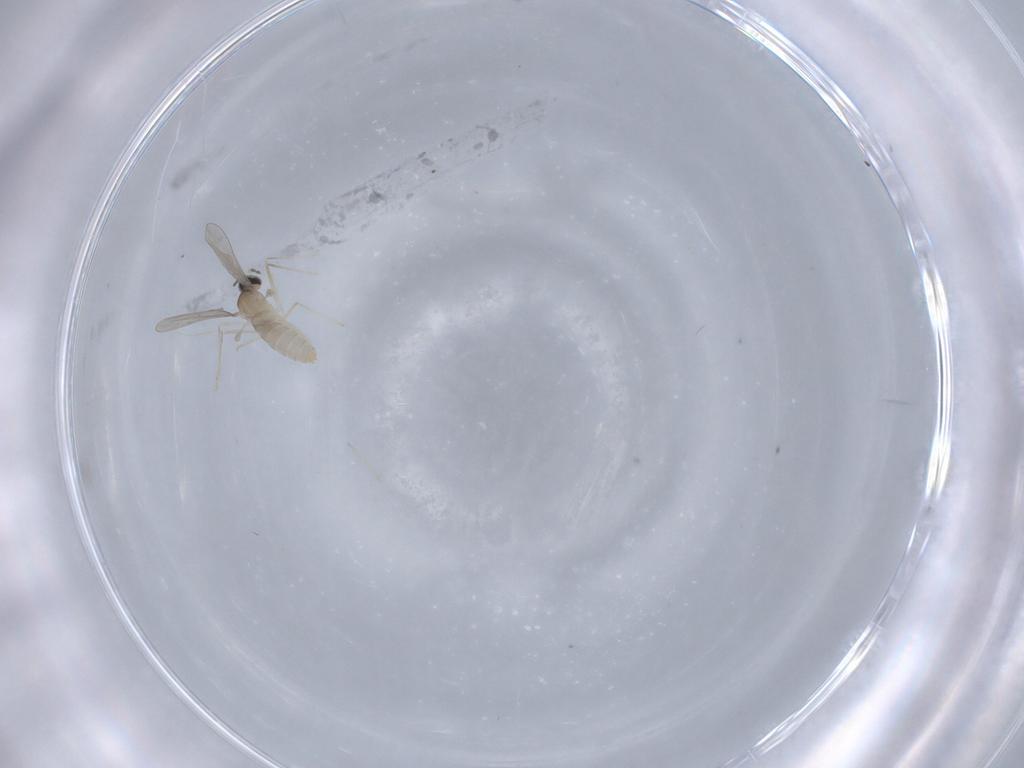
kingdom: Animalia
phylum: Arthropoda
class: Insecta
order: Diptera
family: Cecidomyiidae
